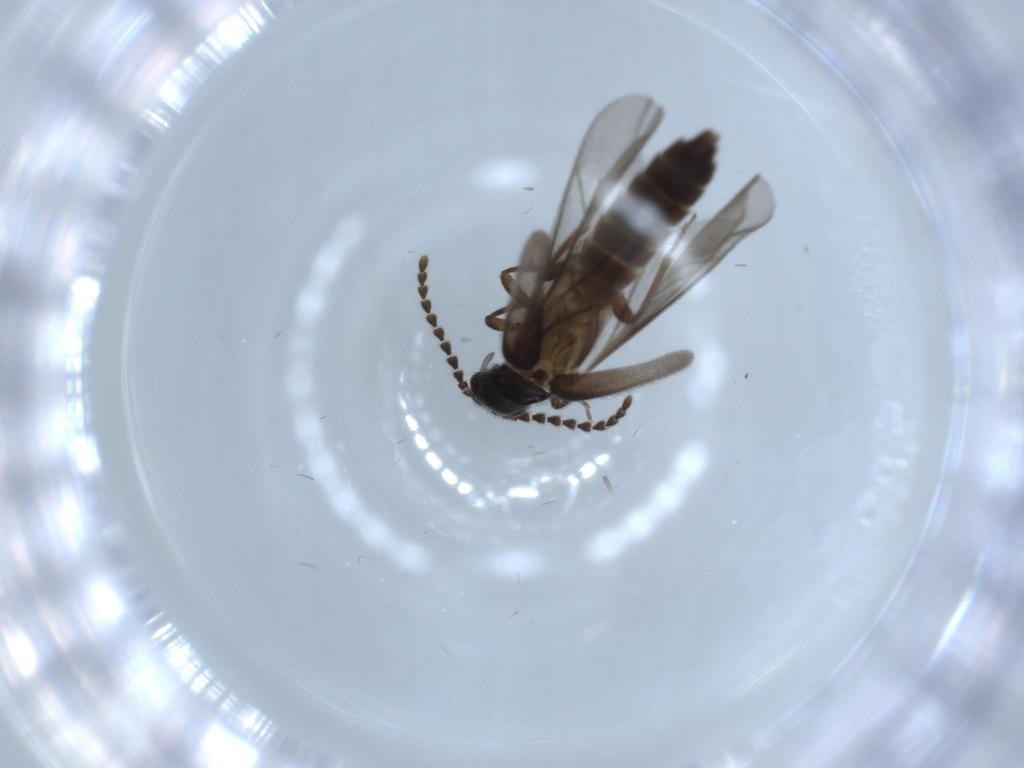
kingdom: Animalia
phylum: Arthropoda
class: Insecta
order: Coleoptera
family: Omethidae
